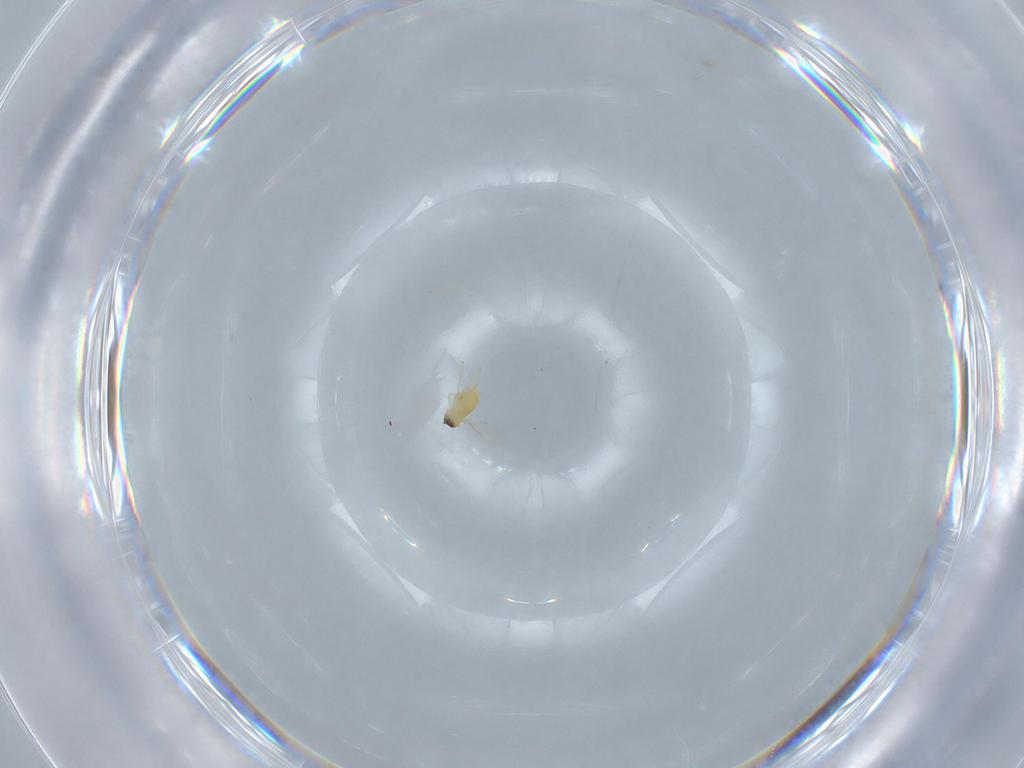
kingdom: Animalia
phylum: Arthropoda
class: Insecta
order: Hymenoptera
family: Aphelinidae
